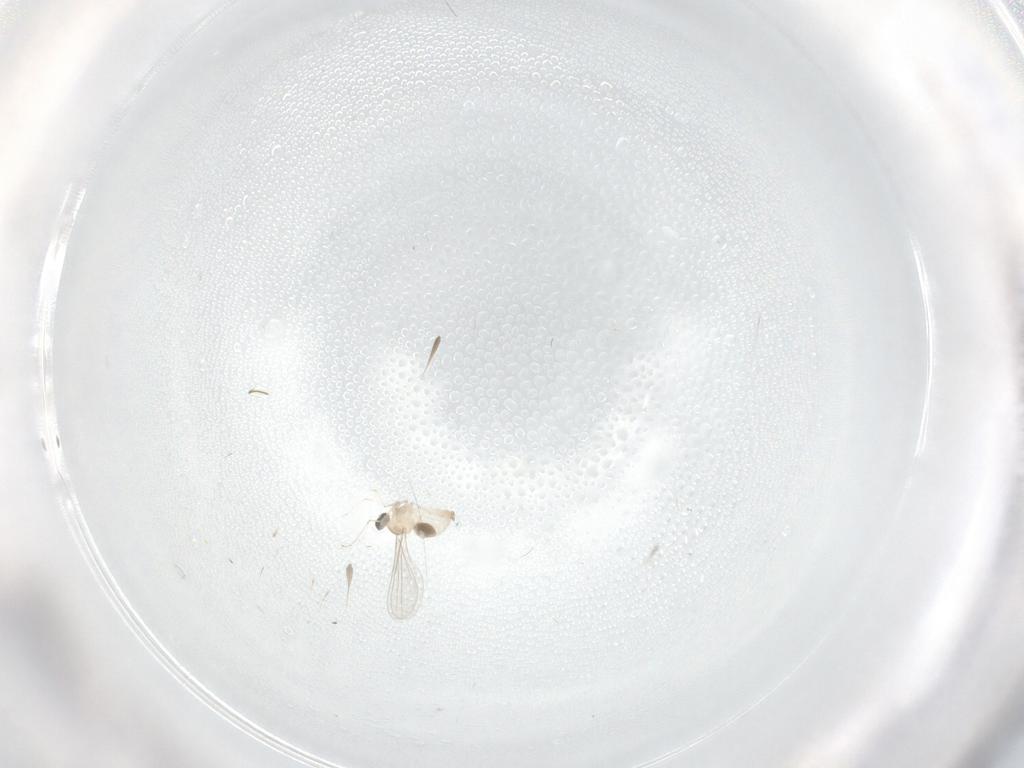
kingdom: Animalia
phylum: Arthropoda
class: Insecta
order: Diptera
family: Cecidomyiidae
